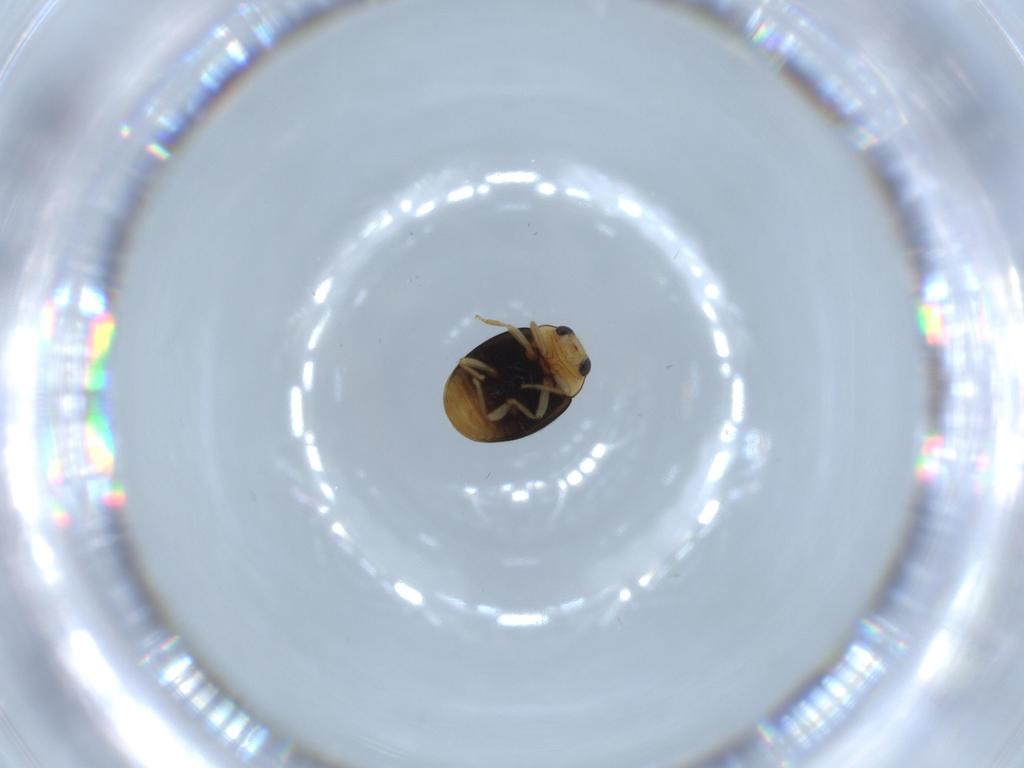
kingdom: Animalia
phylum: Arthropoda
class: Insecta
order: Coleoptera
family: Coccinellidae
